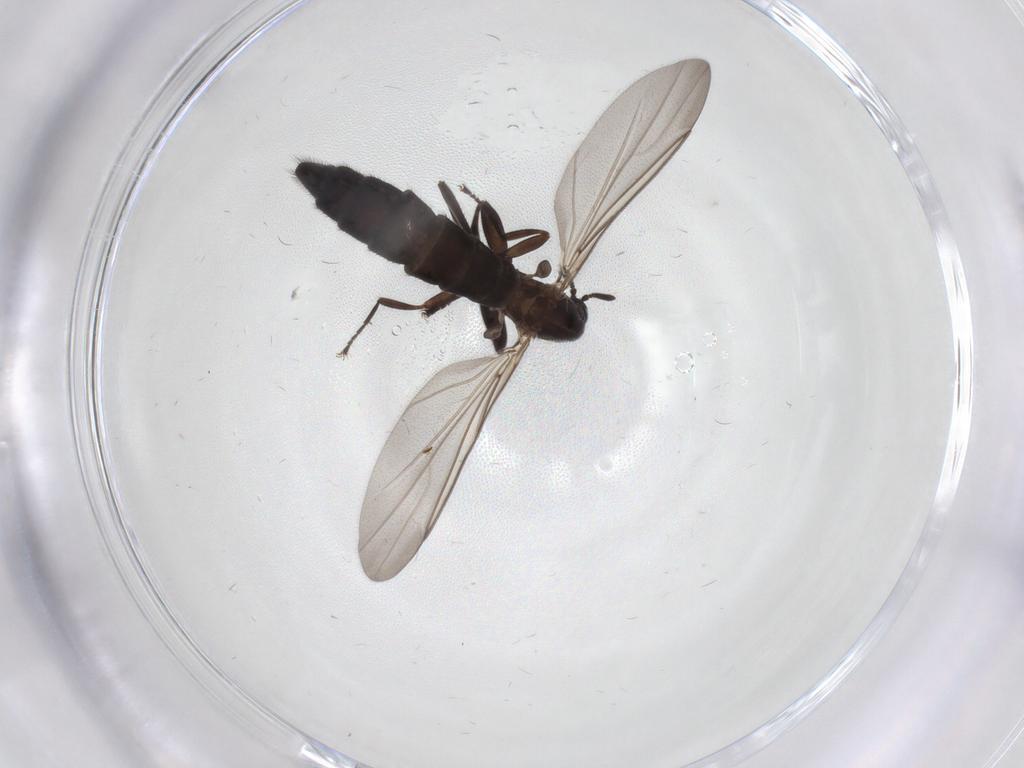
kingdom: Animalia
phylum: Arthropoda
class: Insecta
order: Diptera
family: Scatopsidae
